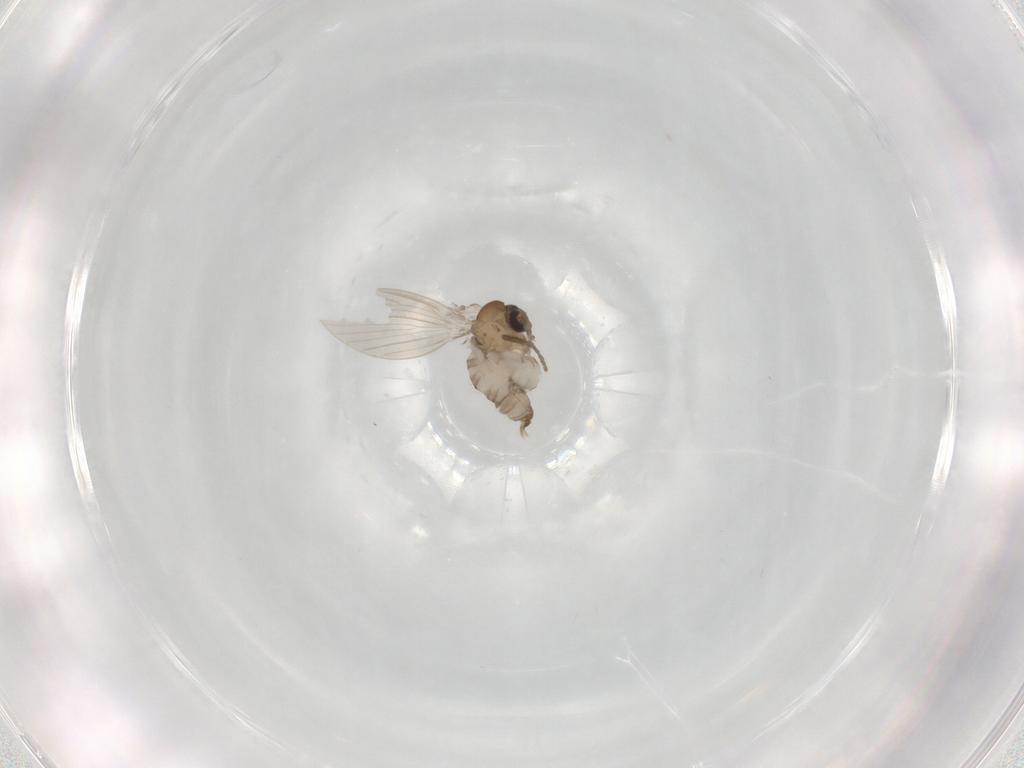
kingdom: Animalia
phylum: Arthropoda
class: Insecta
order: Diptera
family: Psychodidae
